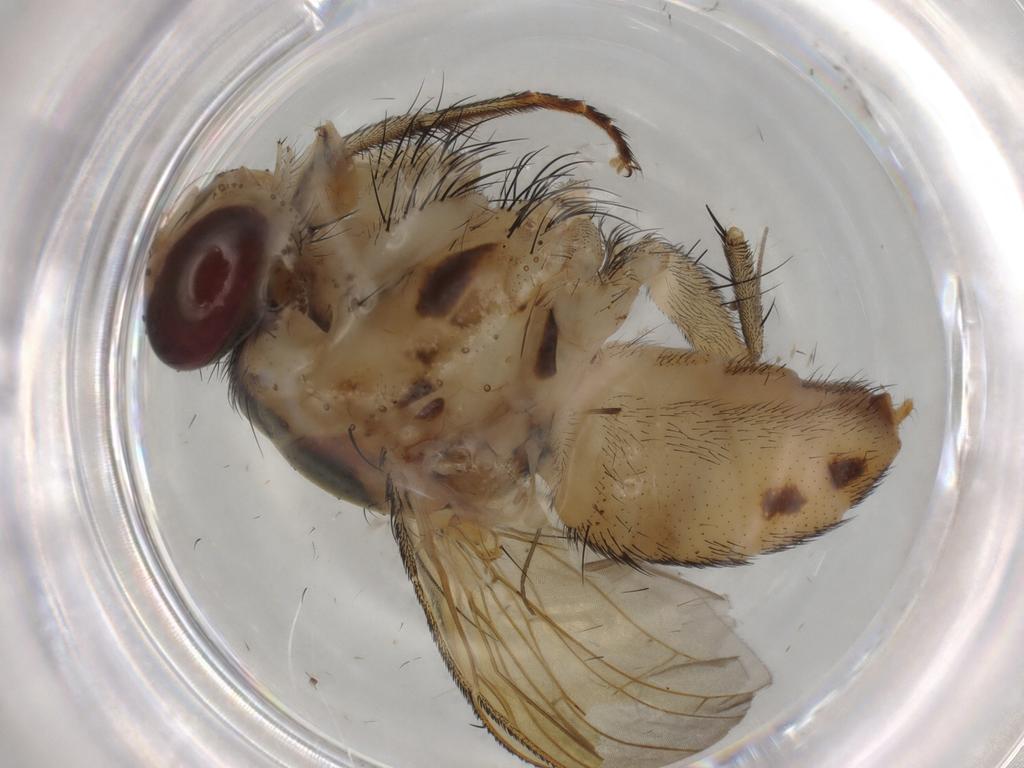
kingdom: Animalia
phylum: Arthropoda
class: Insecta
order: Diptera
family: Muscidae
